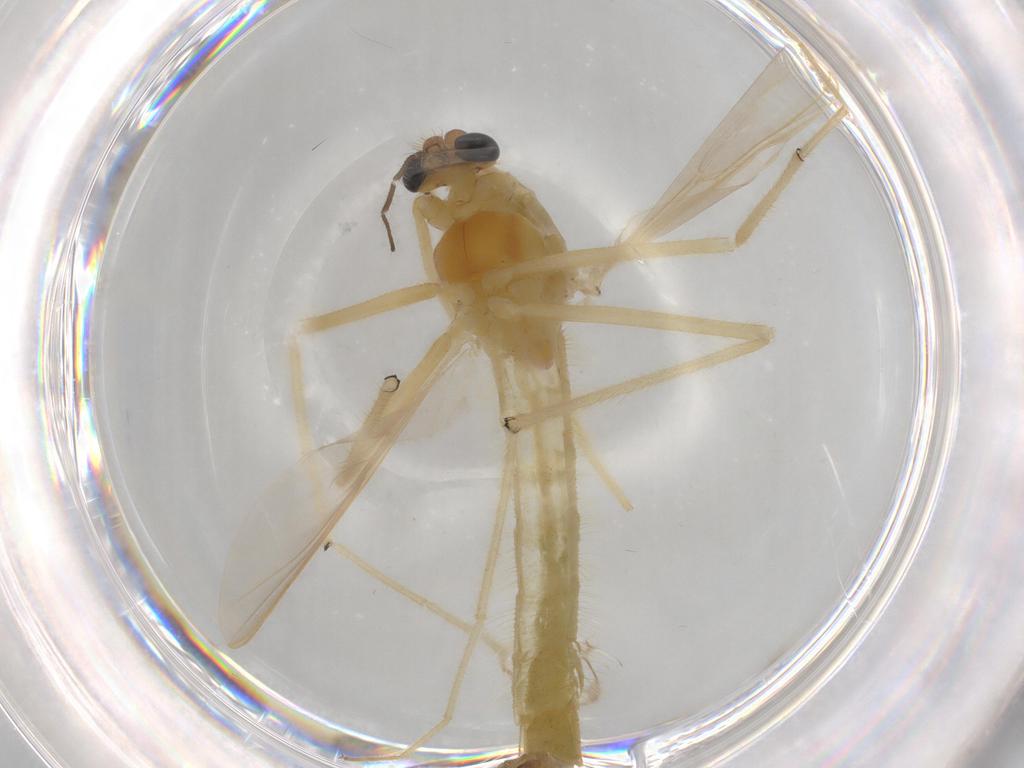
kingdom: Animalia
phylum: Arthropoda
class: Insecta
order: Diptera
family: Chironomidae
